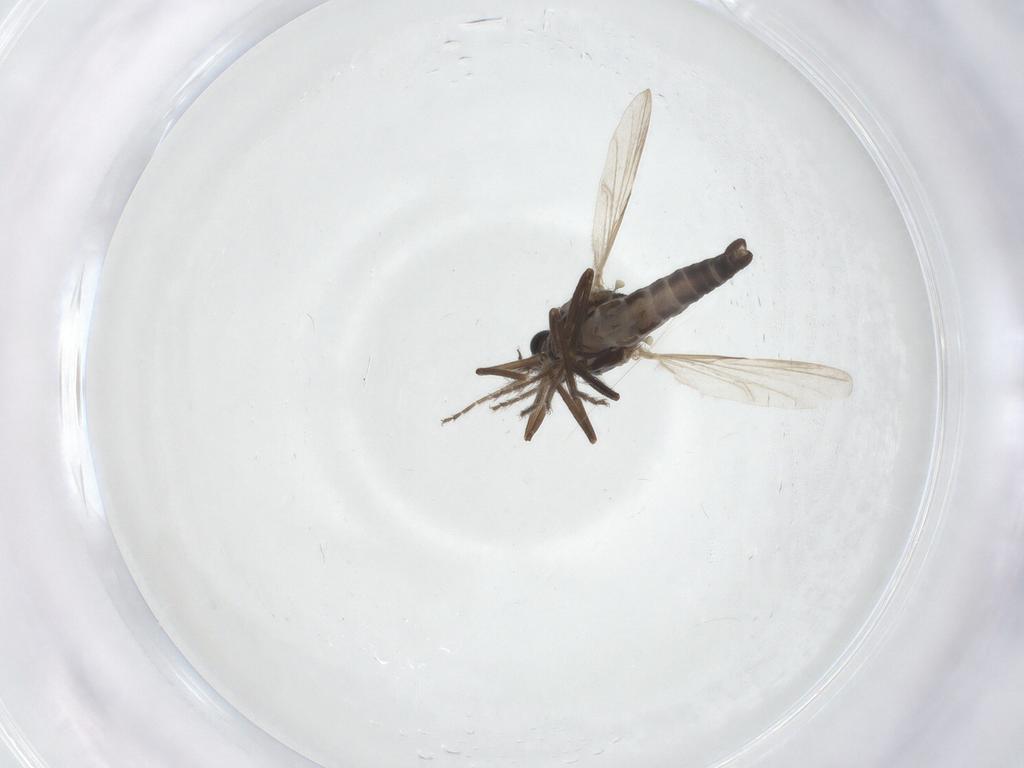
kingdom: Animalia
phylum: Arthropoda
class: Insecta
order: Diptera
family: Ceratopogonidae
